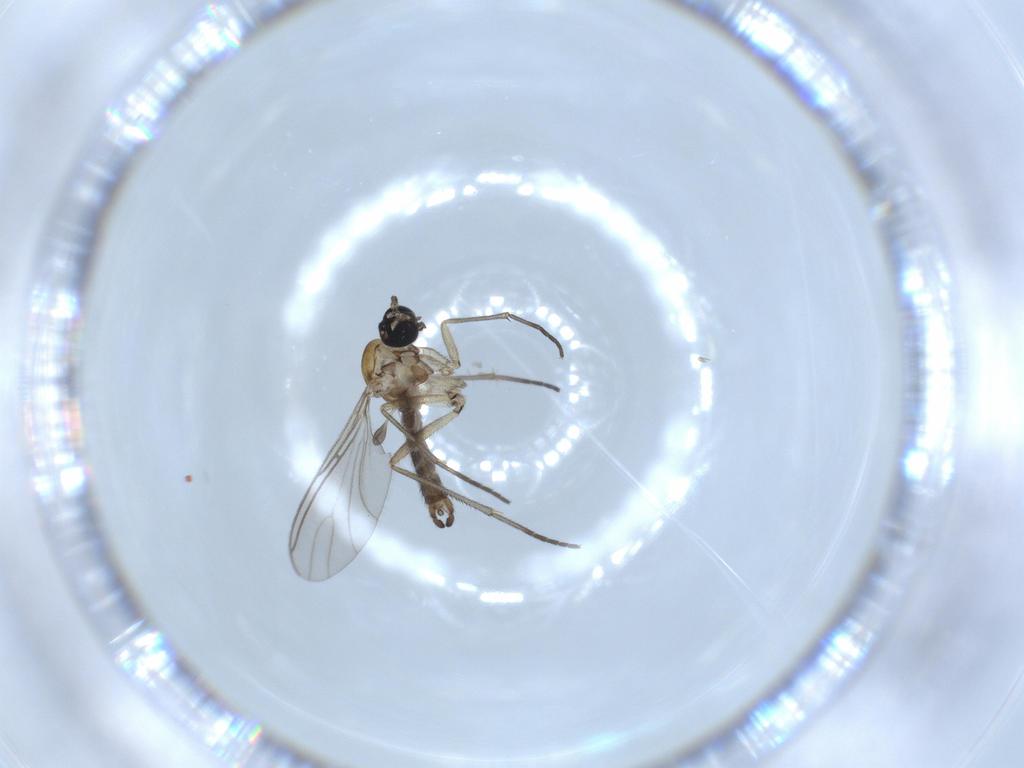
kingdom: Animalia
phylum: Arthropoda
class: Insecta
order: Diptera
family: Sciaridae
